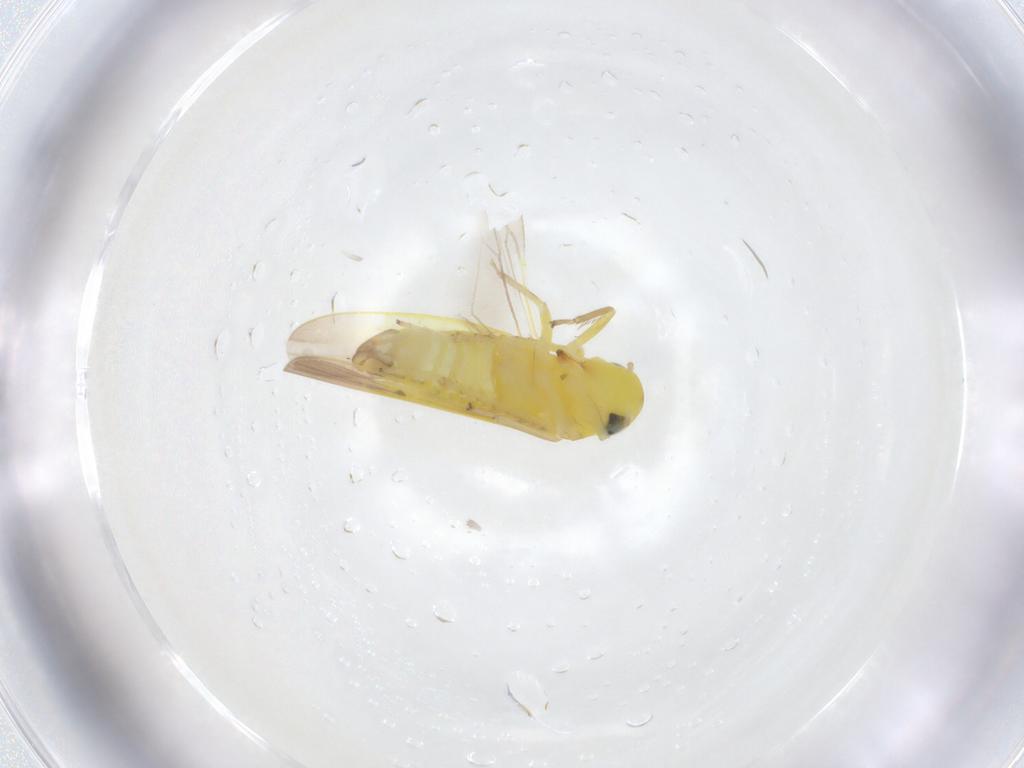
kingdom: Animalia
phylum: Arthropoda
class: Insecta
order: Hemiptera
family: Cicadellidae
